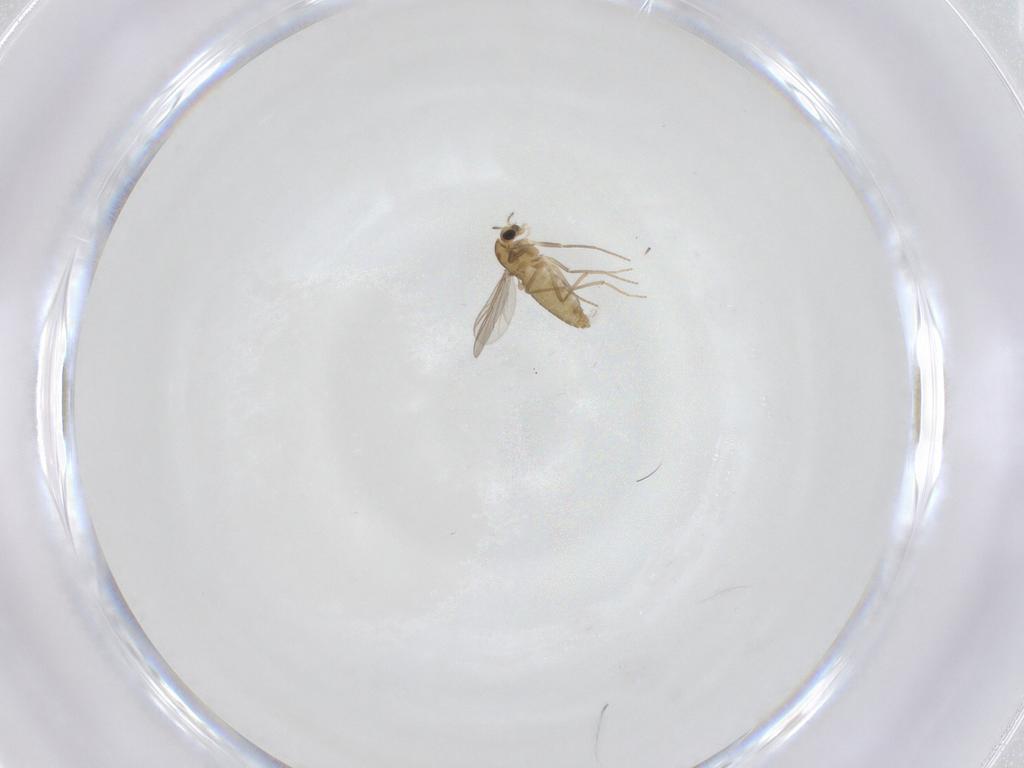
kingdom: Animalia
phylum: Arthropoda
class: Insecta
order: Diptera
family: Chironomidae
